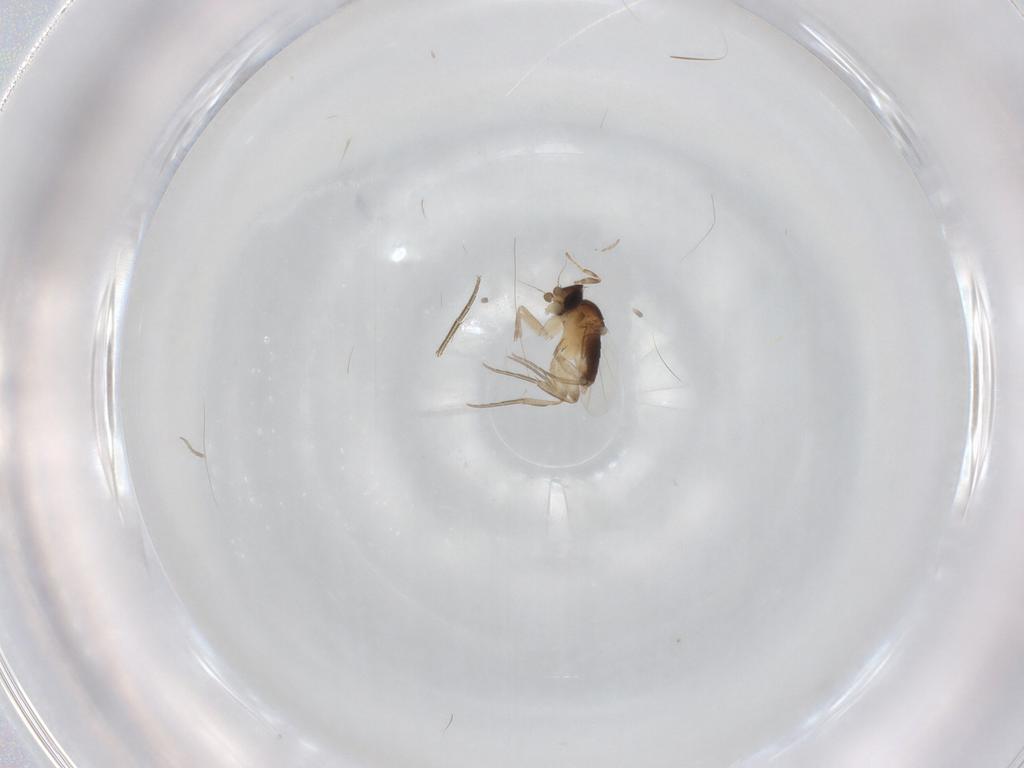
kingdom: Animalia
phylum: Arthropoda
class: Insecta
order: Diptera
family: Phoridae
